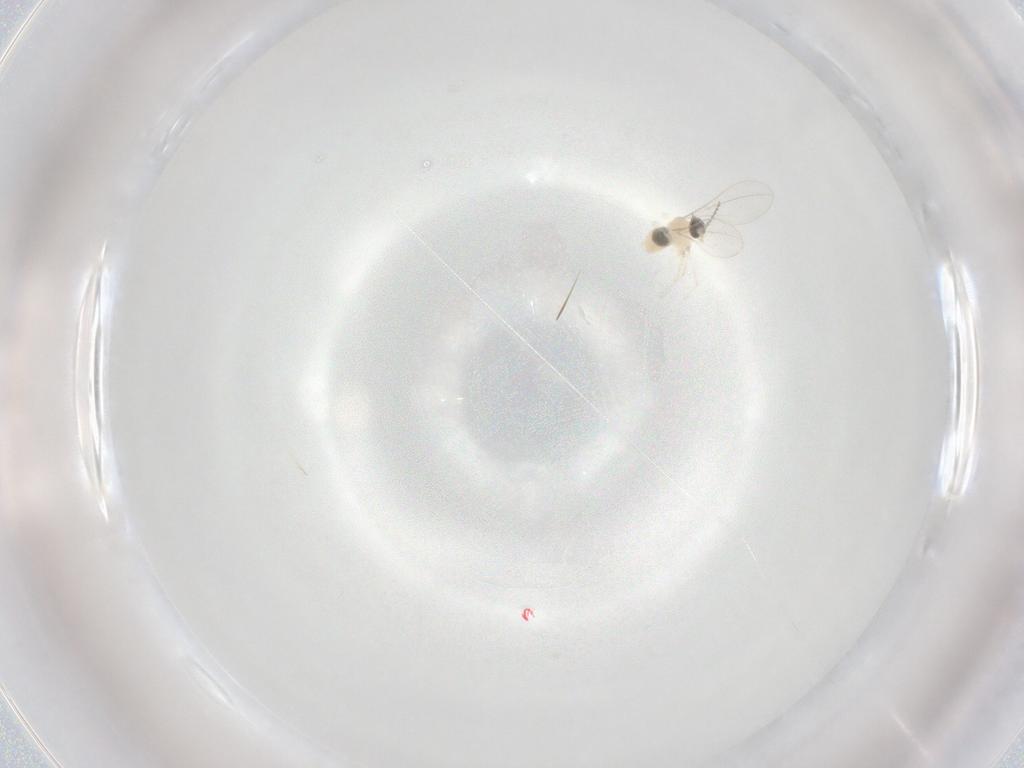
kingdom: Animalia
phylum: Arthropoda
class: Insecta
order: Diptera
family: Cecidomyiidae
